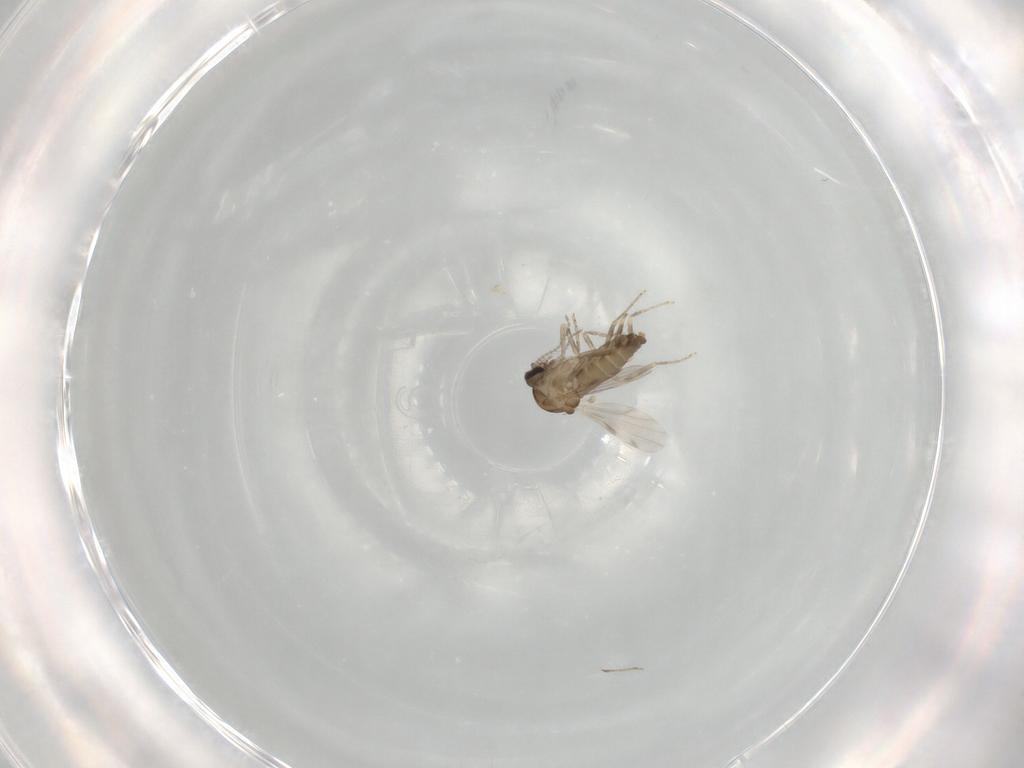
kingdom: Animalia
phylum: Arthropoda
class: Insecta
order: Diptera
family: Ceratopogonidae
